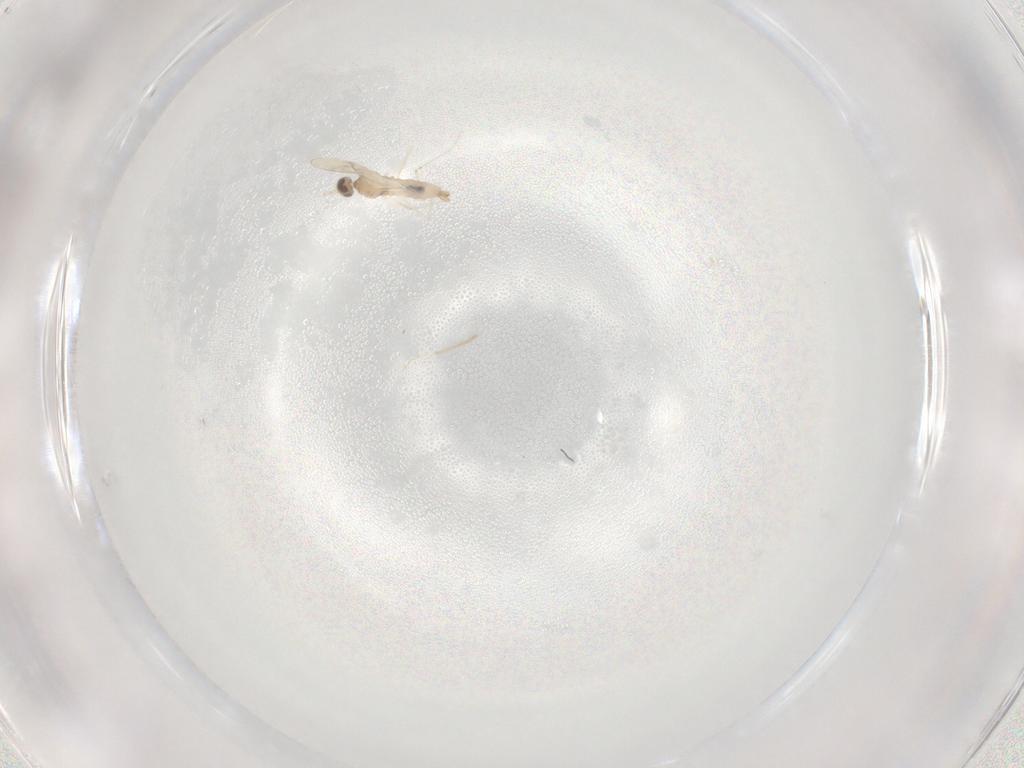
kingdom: Animalia
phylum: Arthropoda
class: Insecta
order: Diptera
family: Cecidomyiidae
